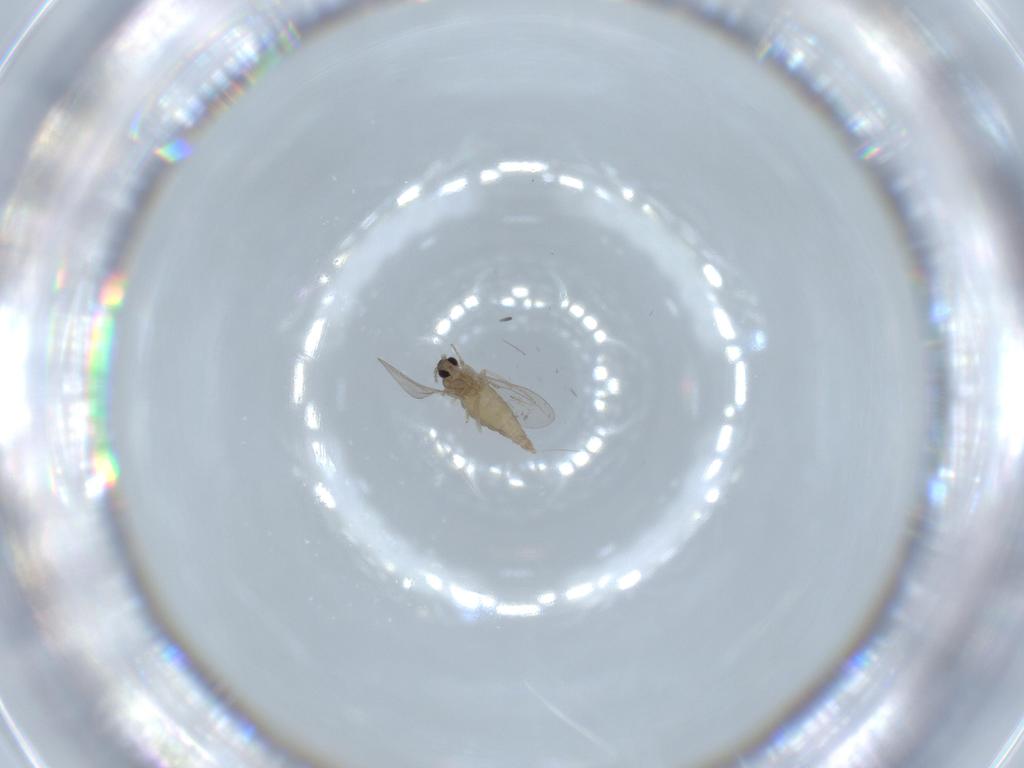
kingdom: Animalia
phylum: Arthropoda
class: Insecta
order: Diptera
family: Cecidomyiidae
